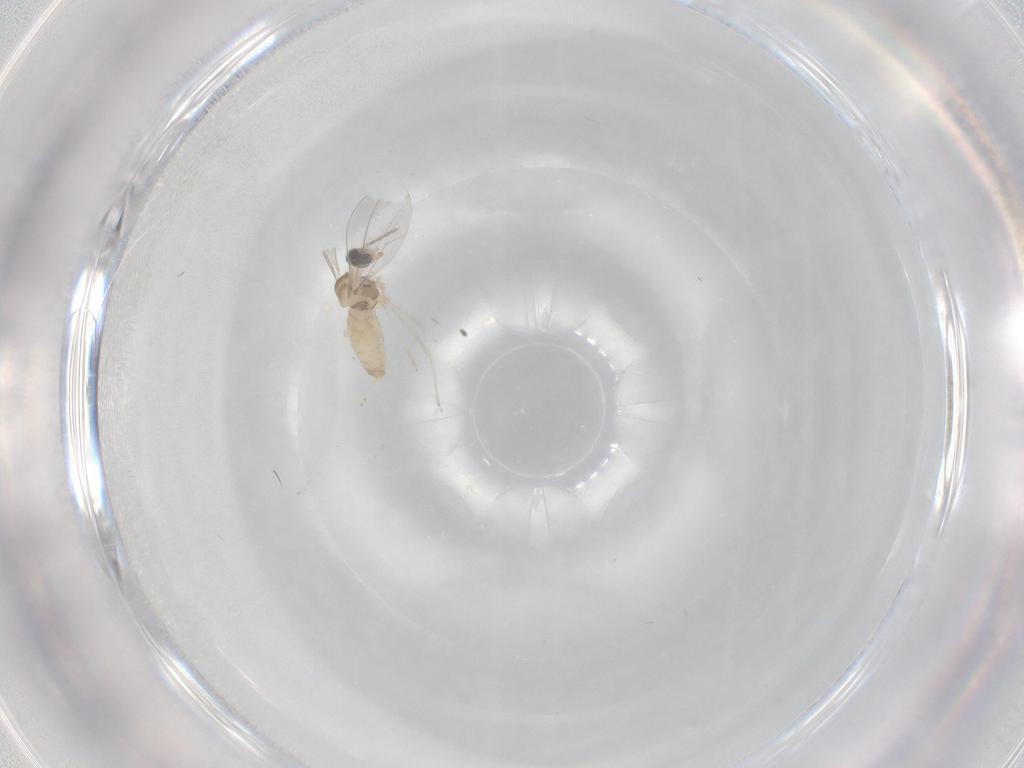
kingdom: Animalia
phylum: Arthropoda
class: Insecta
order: Diptera
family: Cecidomyiidae
